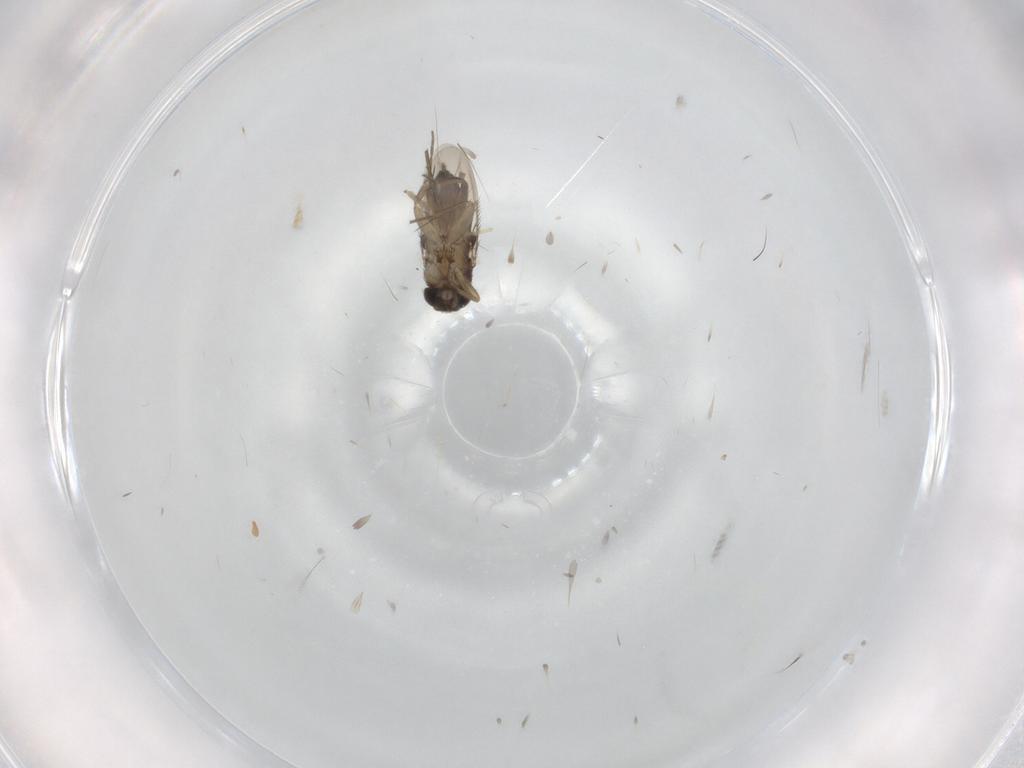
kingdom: Animalia
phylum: Arthropoda
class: Insecta
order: Diptera
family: Phoridae
